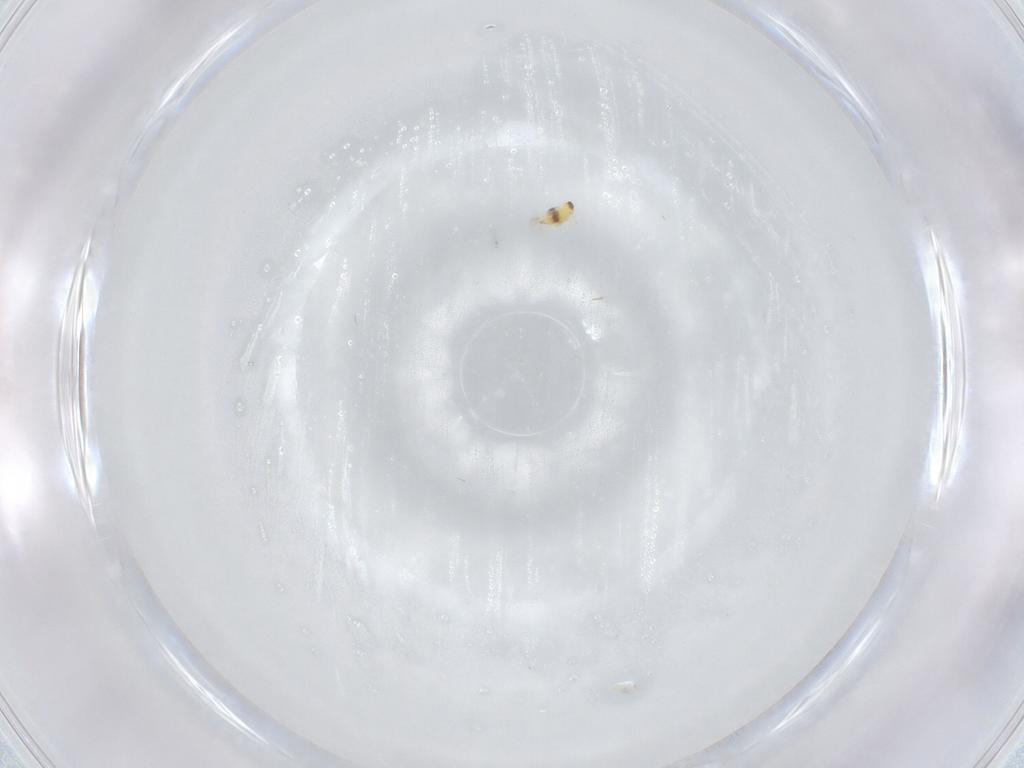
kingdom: Animalia
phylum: Arthropoda
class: Insecta
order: Hymenoptera
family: Signiphoridae
